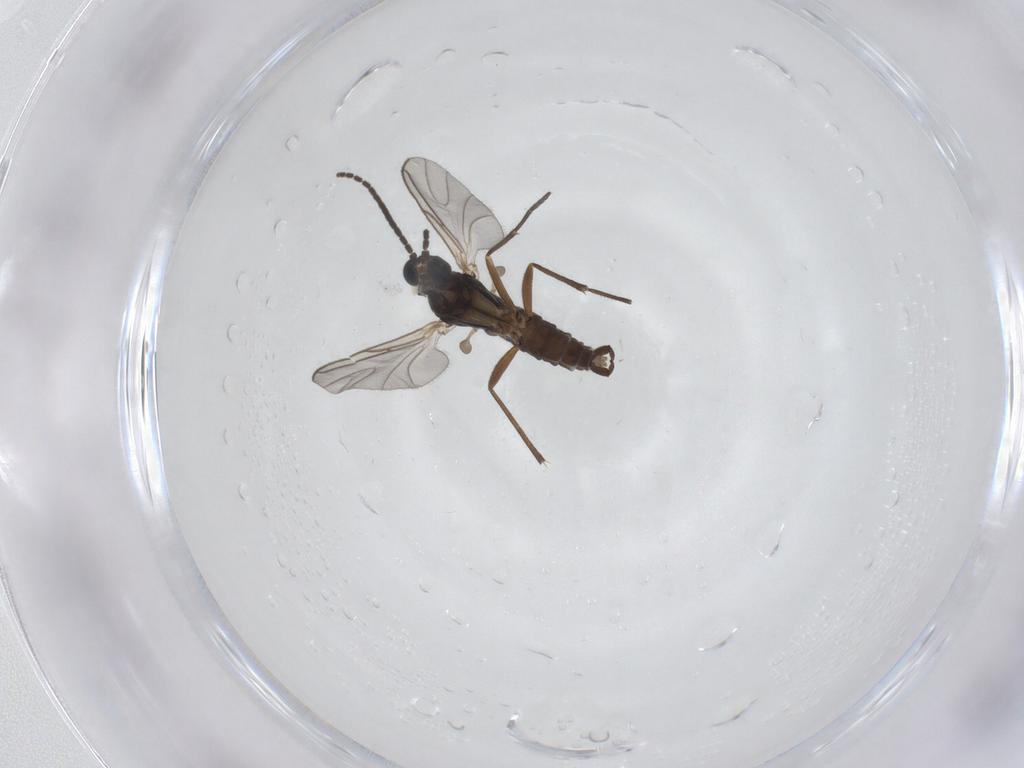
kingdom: Animalia
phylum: Arthropoda
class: Insecta
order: Diptera
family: Sciaridae
